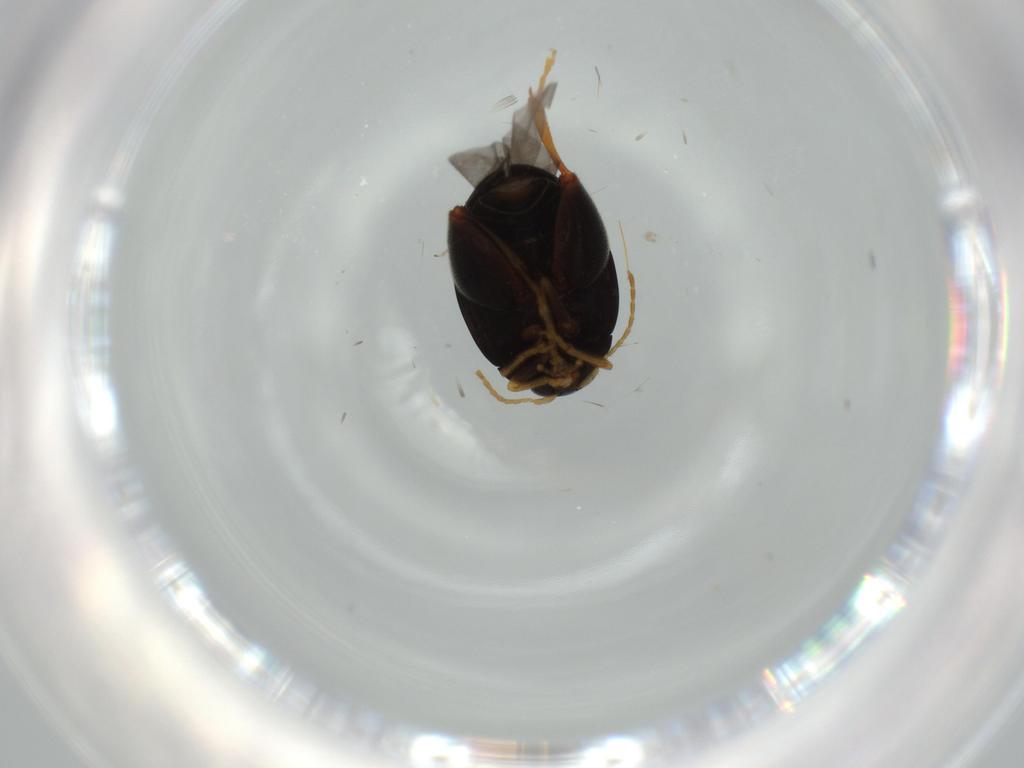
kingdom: Animalia
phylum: Arthropoda
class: Insecta
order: Coleoptera
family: Chrysomelidae
